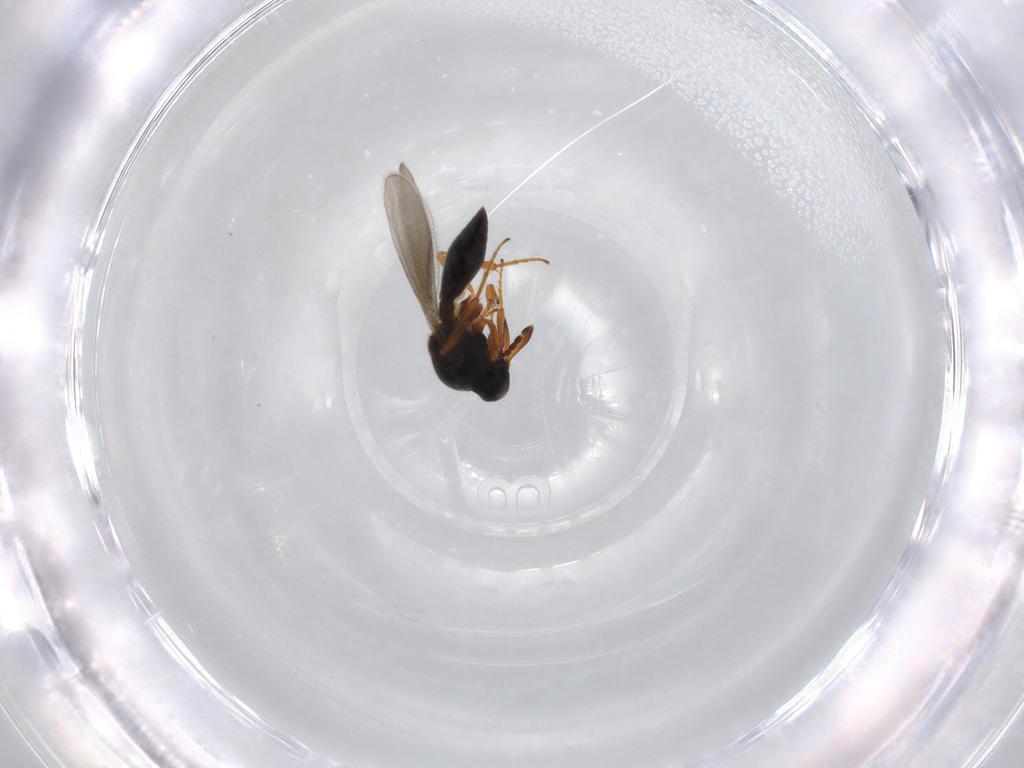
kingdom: Animalia
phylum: Arthropoda
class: Insecta
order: Hymenoptera
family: Platygastridae
